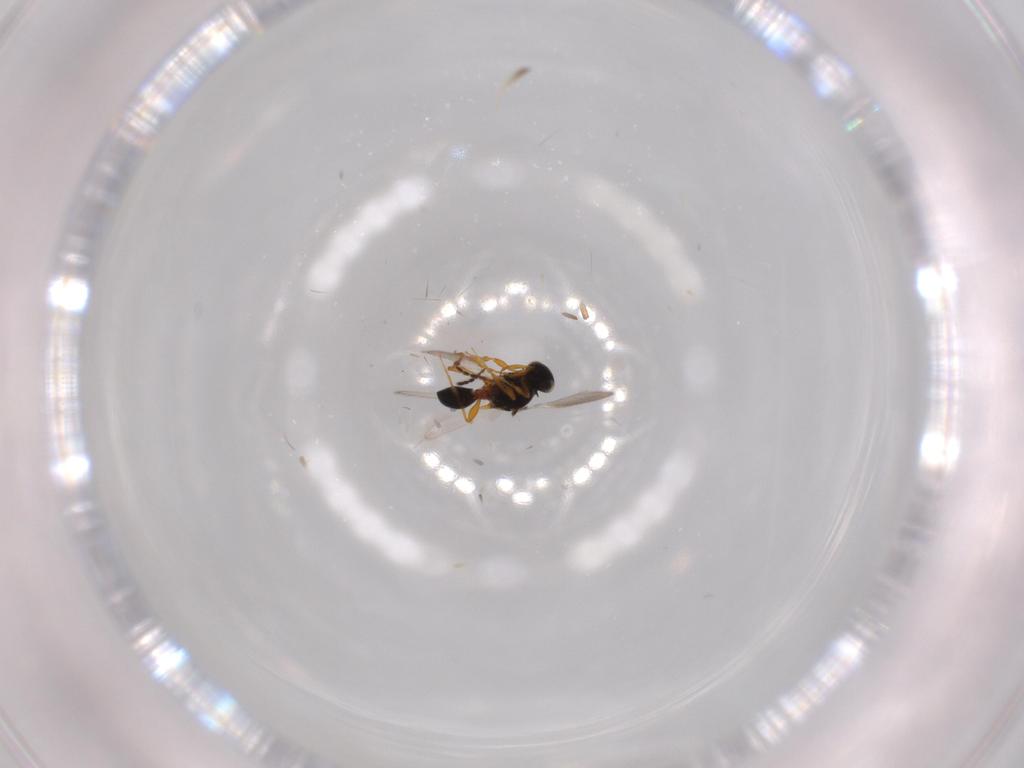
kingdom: Animalia
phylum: Arthropoda
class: Insecta
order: Hymenoptera
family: Platygastridae
